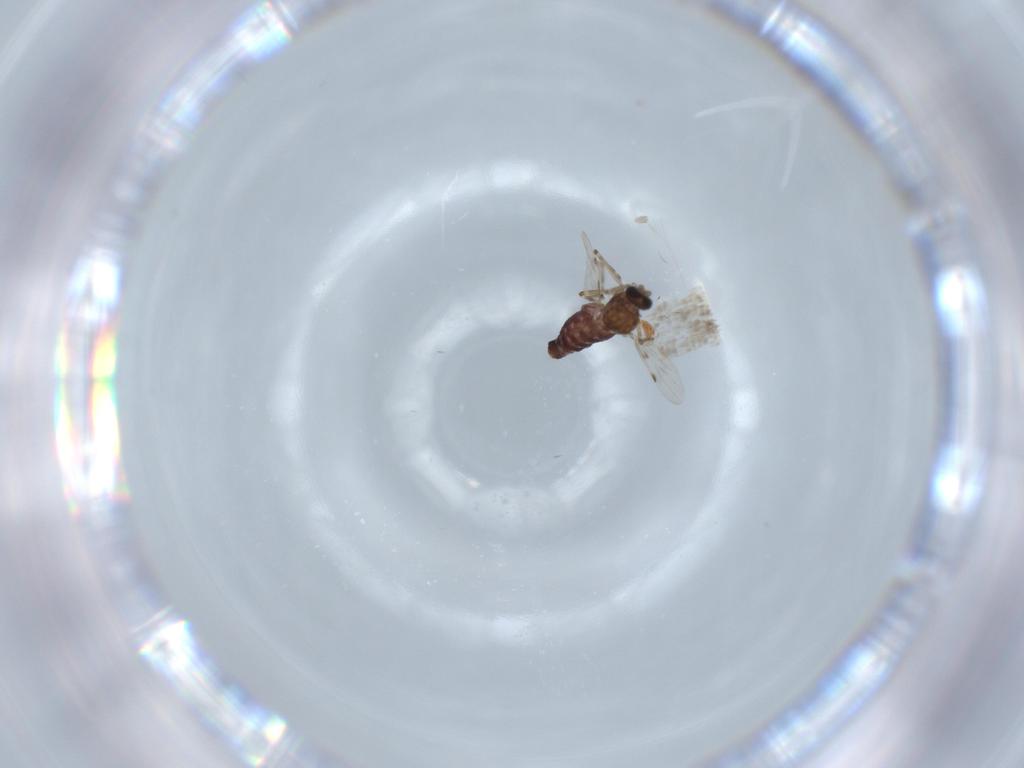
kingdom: Animalia
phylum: Arthropoda
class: Insecta
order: Diptera
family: Ceratopogonidae
